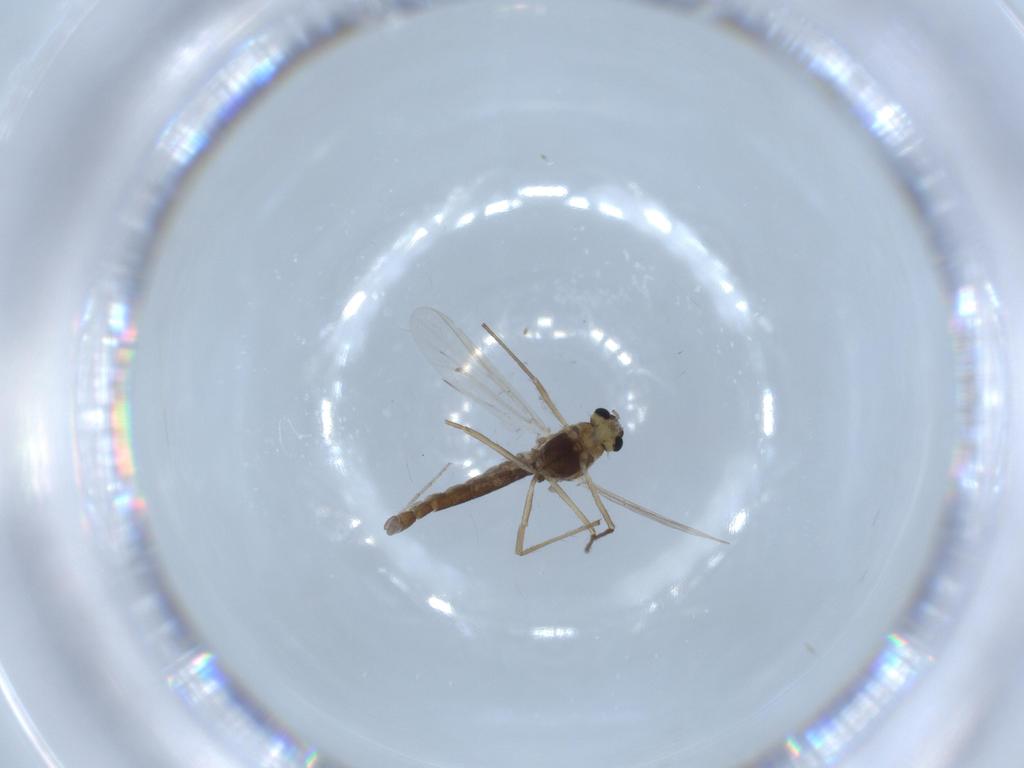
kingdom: Animalia
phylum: Arthropoda
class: Insecta
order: Diptera
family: Chironomidae
